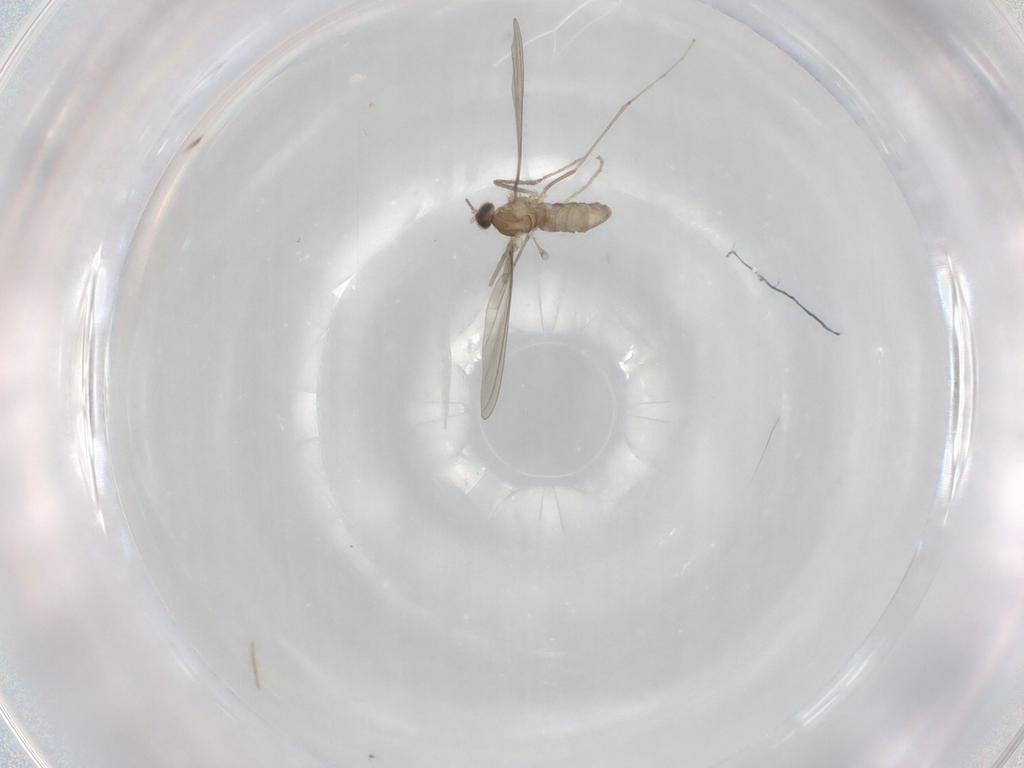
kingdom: Animalia
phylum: Arthropoda
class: Insecta
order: Diptera
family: Cecidomyiidae
